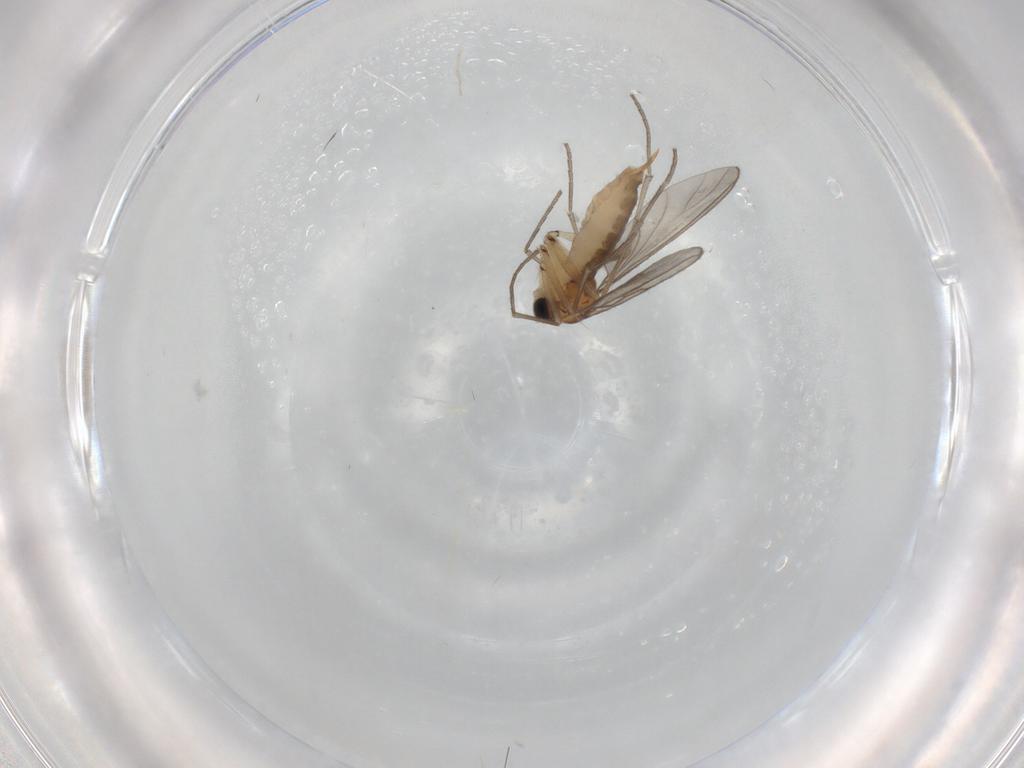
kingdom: Animalia
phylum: Arthropoda
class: Insecta
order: Diptera
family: Sciaridae
